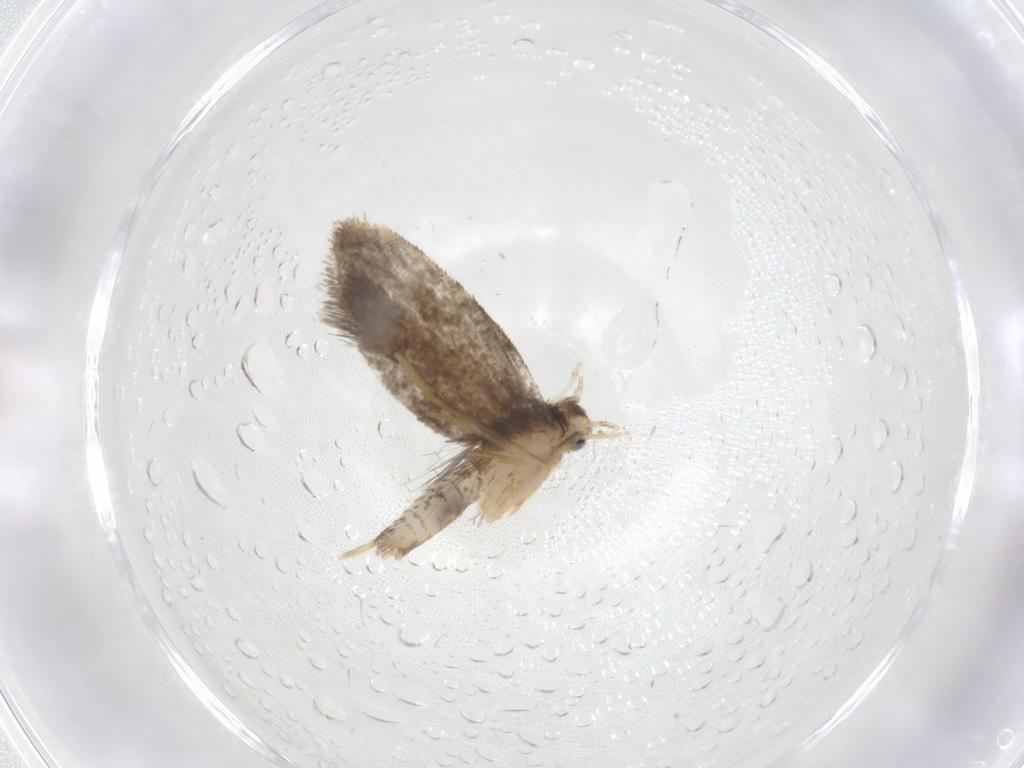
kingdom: Animalia
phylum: Arthropoda
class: Insecta
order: Lepidoptera
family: Psychidae
